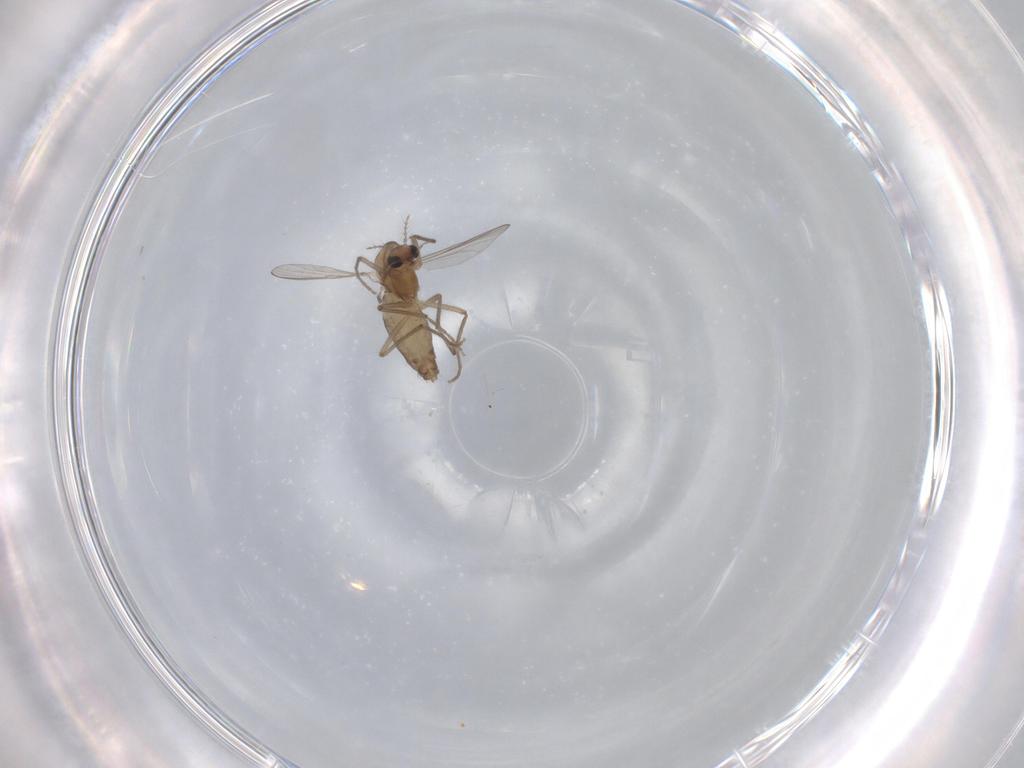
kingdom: Animalia
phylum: Arthropoda
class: Insecta
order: Diptera
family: Chironomidae
